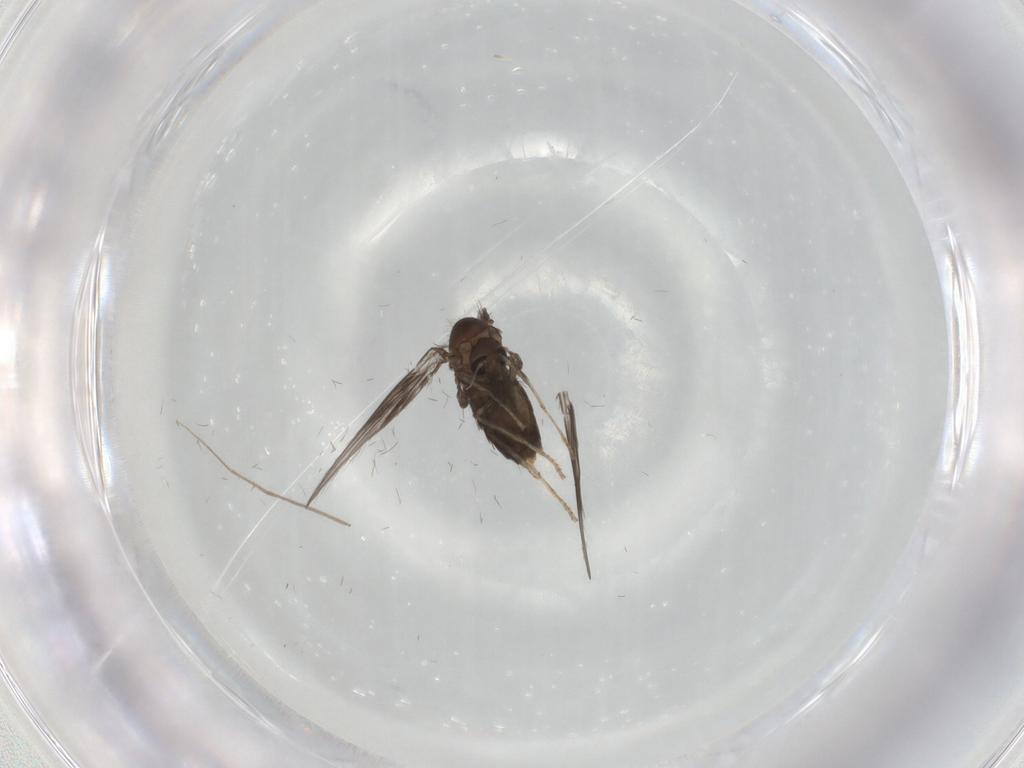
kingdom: Animalia
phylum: Arthropoda
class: Insecta
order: Diptera
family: Psychodidae
